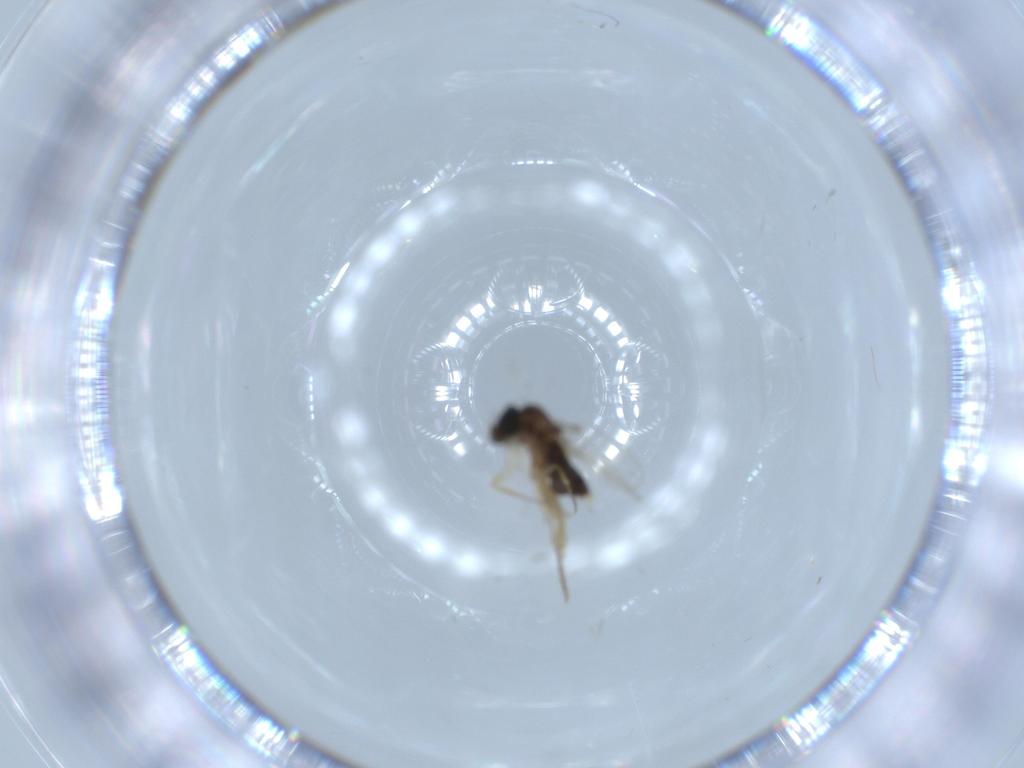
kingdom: Animalia
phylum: Arthropoda
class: Insecta
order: Diptera
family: Phoridae
